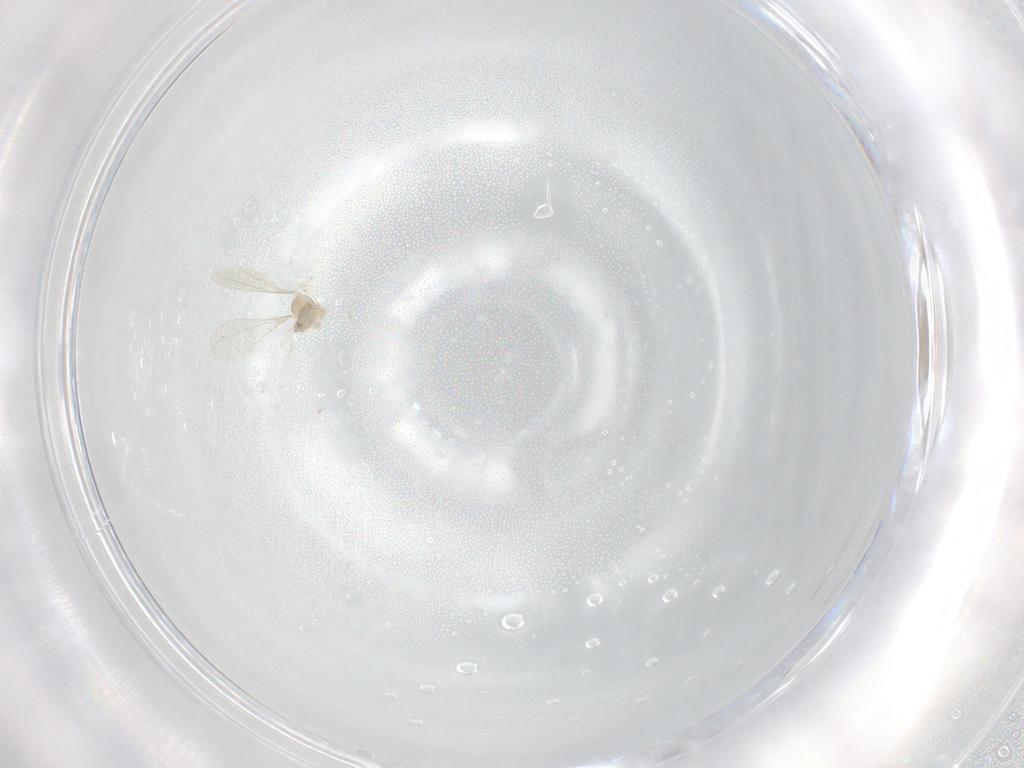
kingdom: Animalia
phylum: Arthropoda
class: Insecta
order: Diptera
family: Cecidomyiidae
